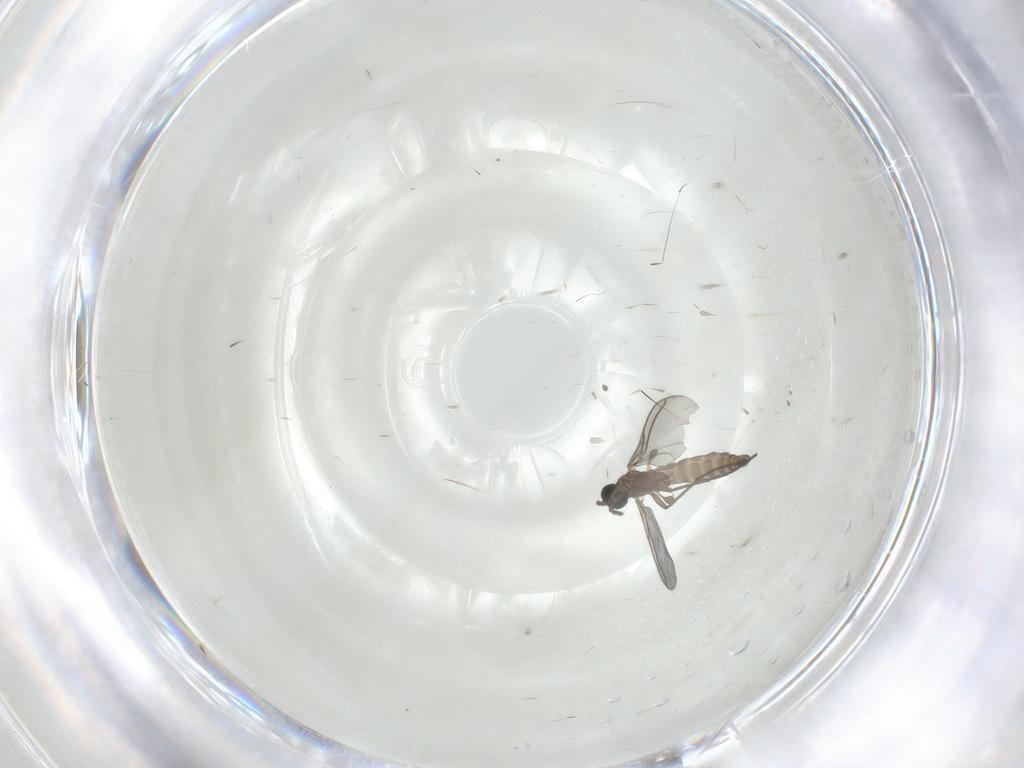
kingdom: Animalia
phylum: Arthropoda
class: Insecta
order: Diptera
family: Sciaridae
